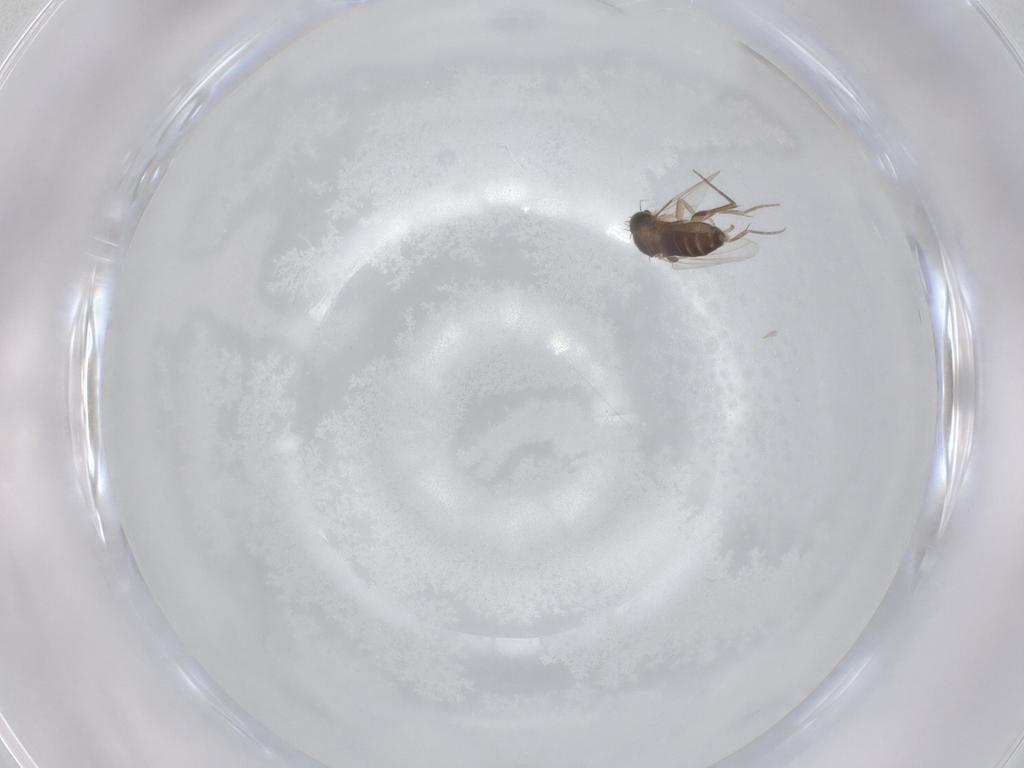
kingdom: Animalia
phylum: Arthropoda
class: Insecta
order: Diptera
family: Phoridae
